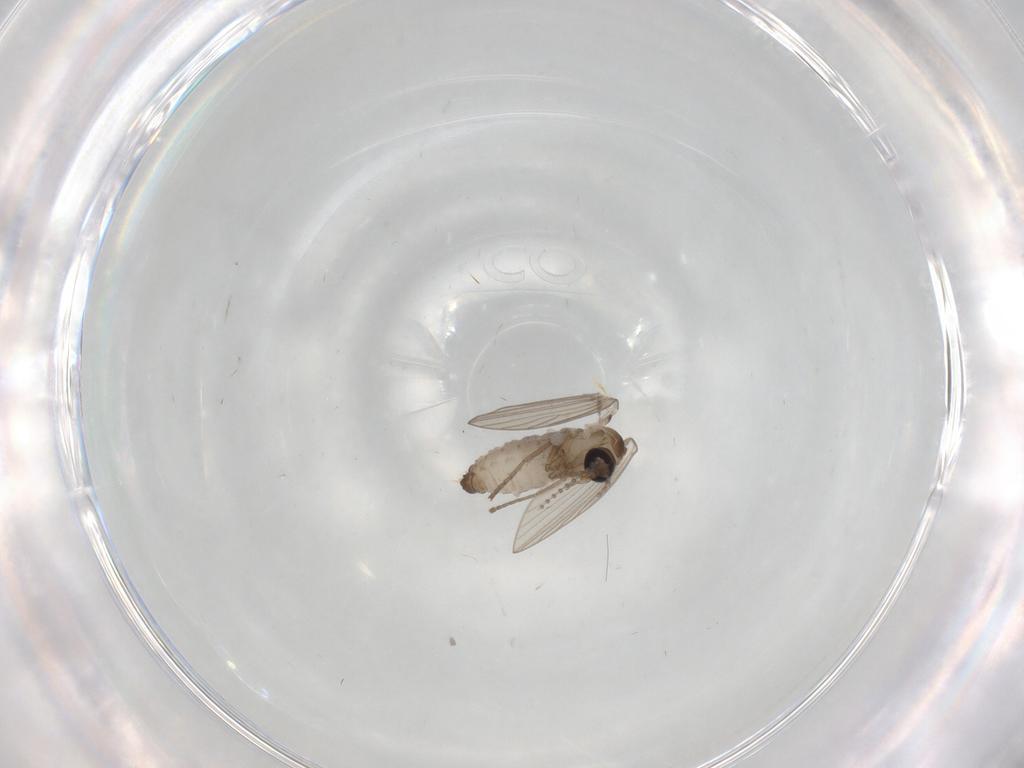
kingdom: Animalia
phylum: Arthropoda
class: Insecta
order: Diptera
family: Psychodidae
